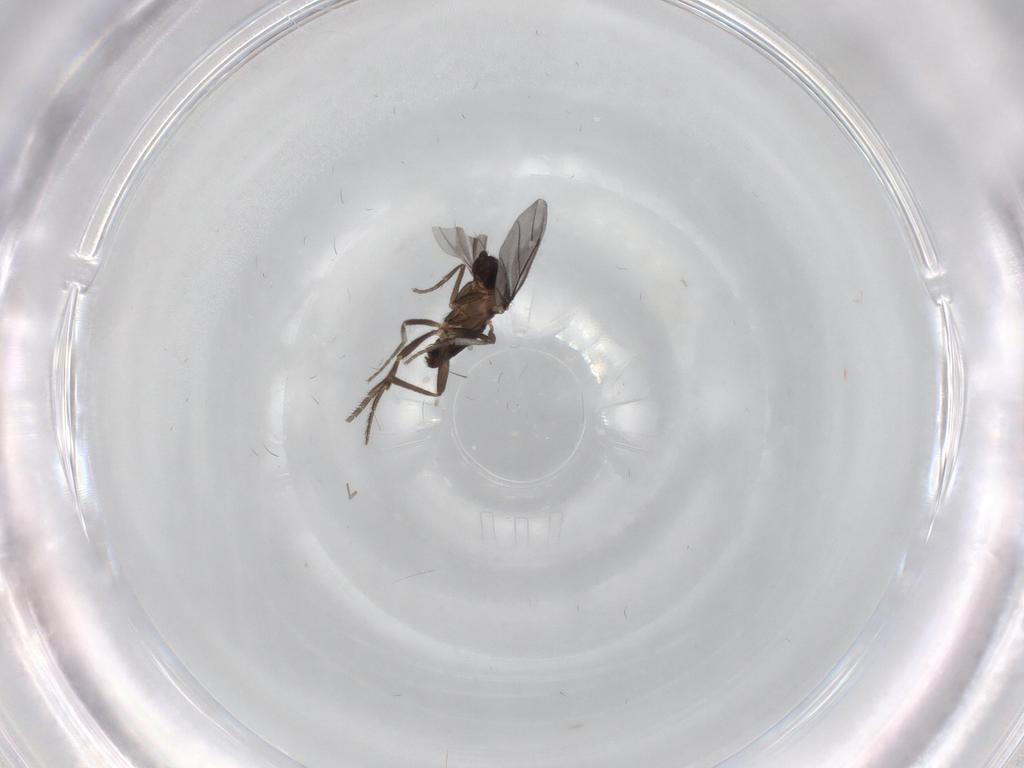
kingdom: Animalia
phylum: Arthropoda
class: Insecta
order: Diptera
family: Phoridae
